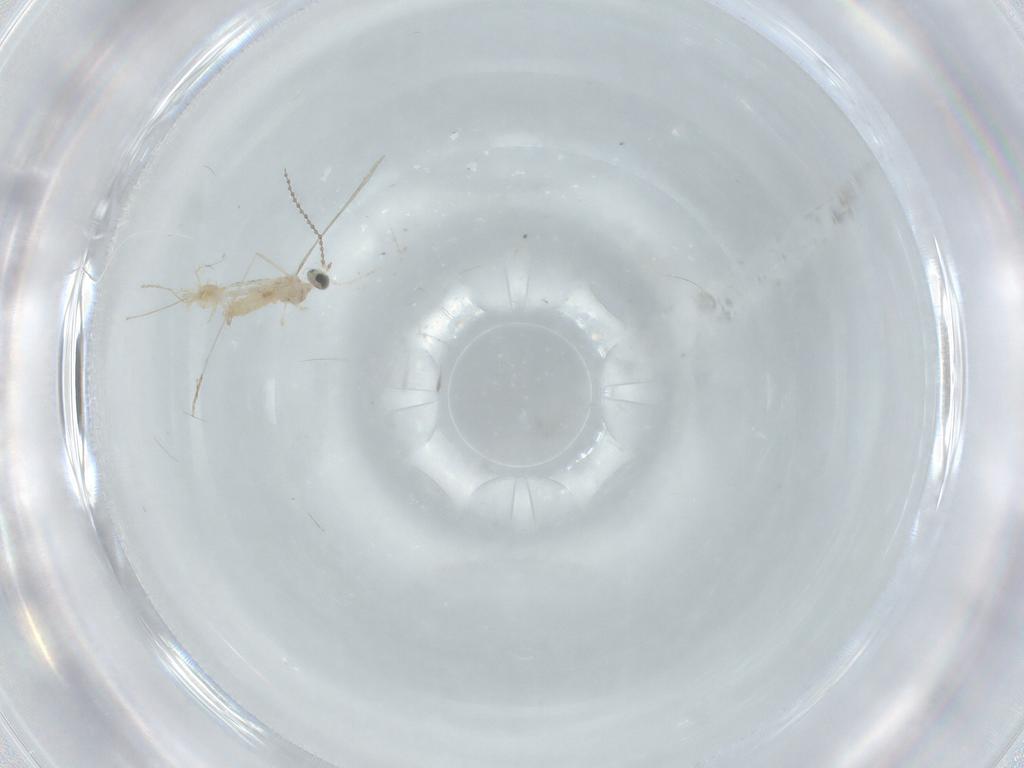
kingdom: Animalia
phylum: Arthropoda
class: Insecta
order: Diptera
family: Cecidomyiidae
